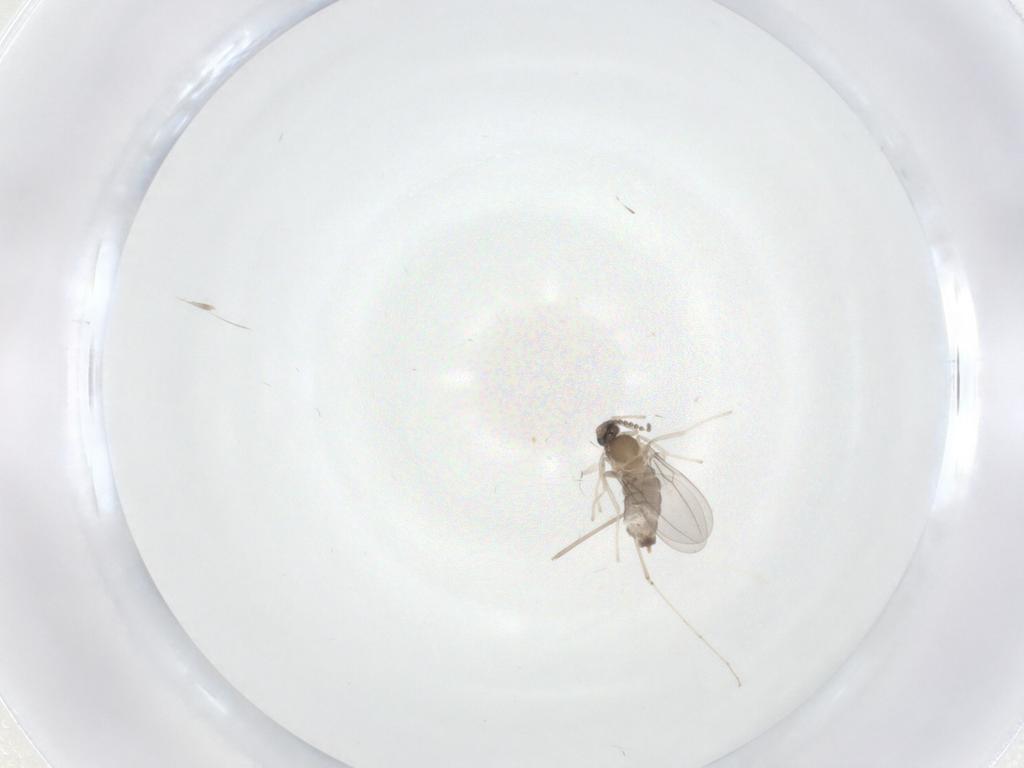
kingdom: Animalia
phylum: Arthropoda
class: Insecta
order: Diptera
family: Cecidomyiidae
